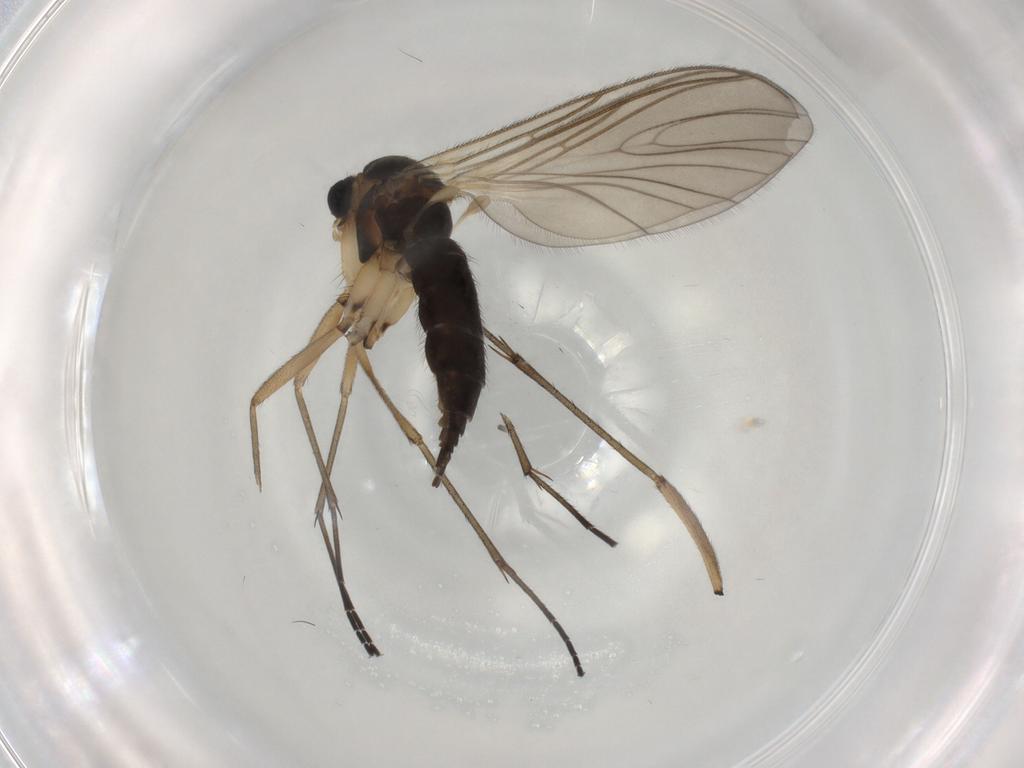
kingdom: Animalia
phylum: Arthropoda
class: Insecta
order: Diptera
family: Sciaridae
